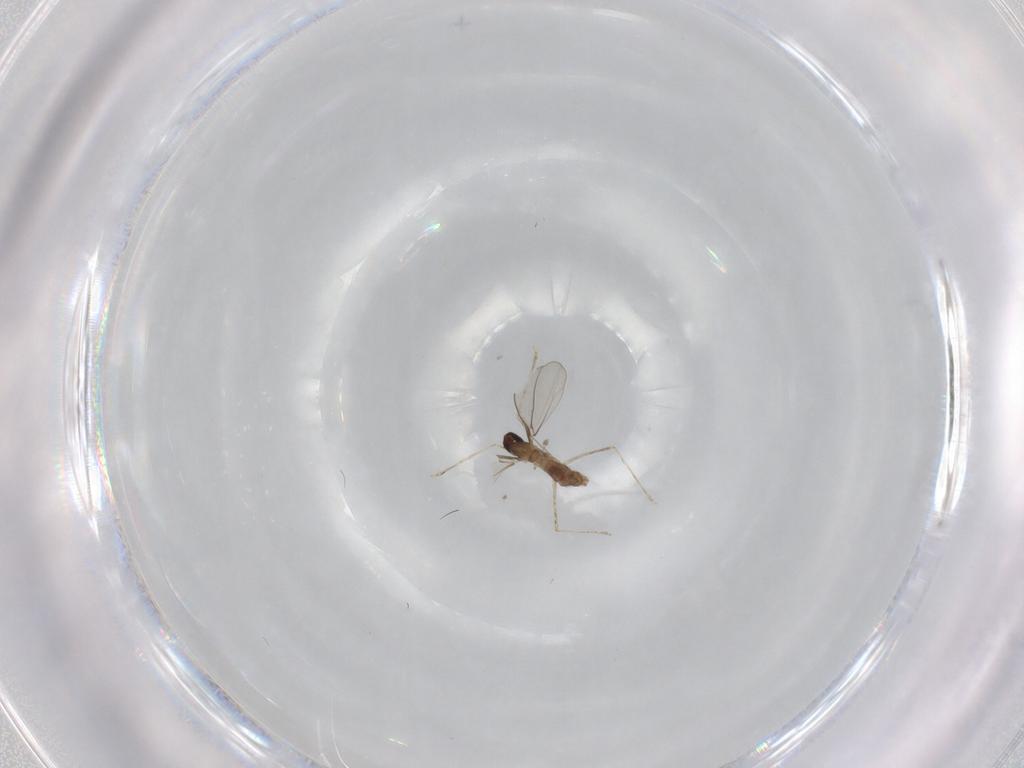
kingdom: Animalia
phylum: Arthropoda
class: Insecta
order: Diptera
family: Cecidomyiidae
